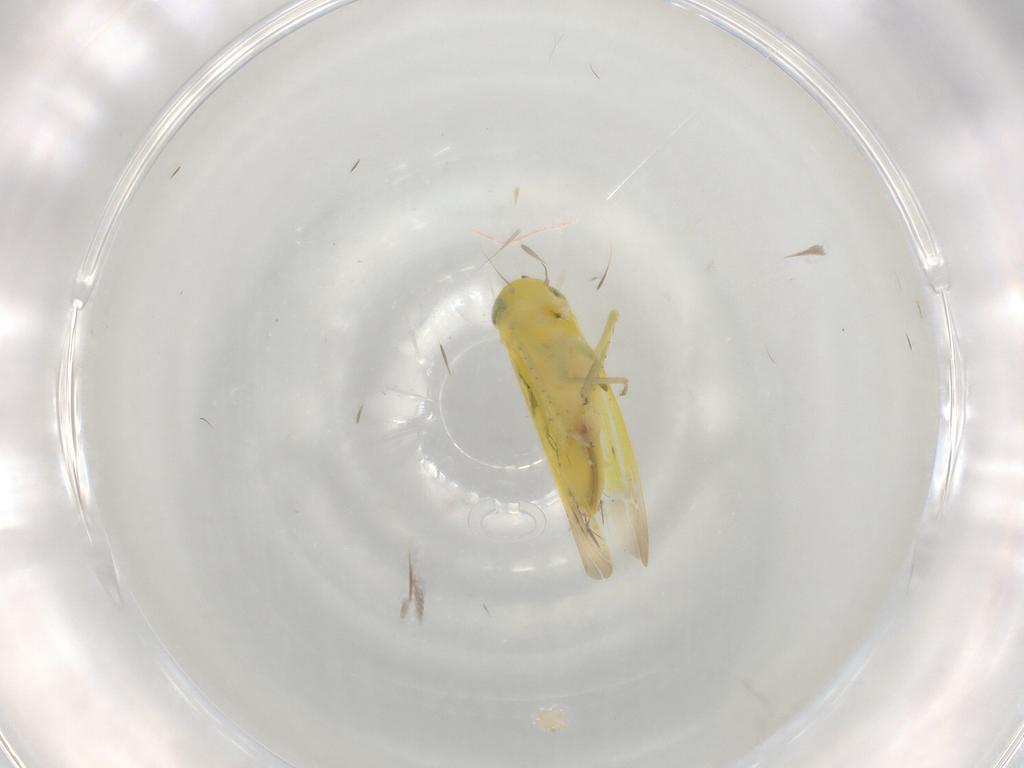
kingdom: Animalia
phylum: Arthropoda
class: Insecta
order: Hemiptera
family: Cicadellidae
